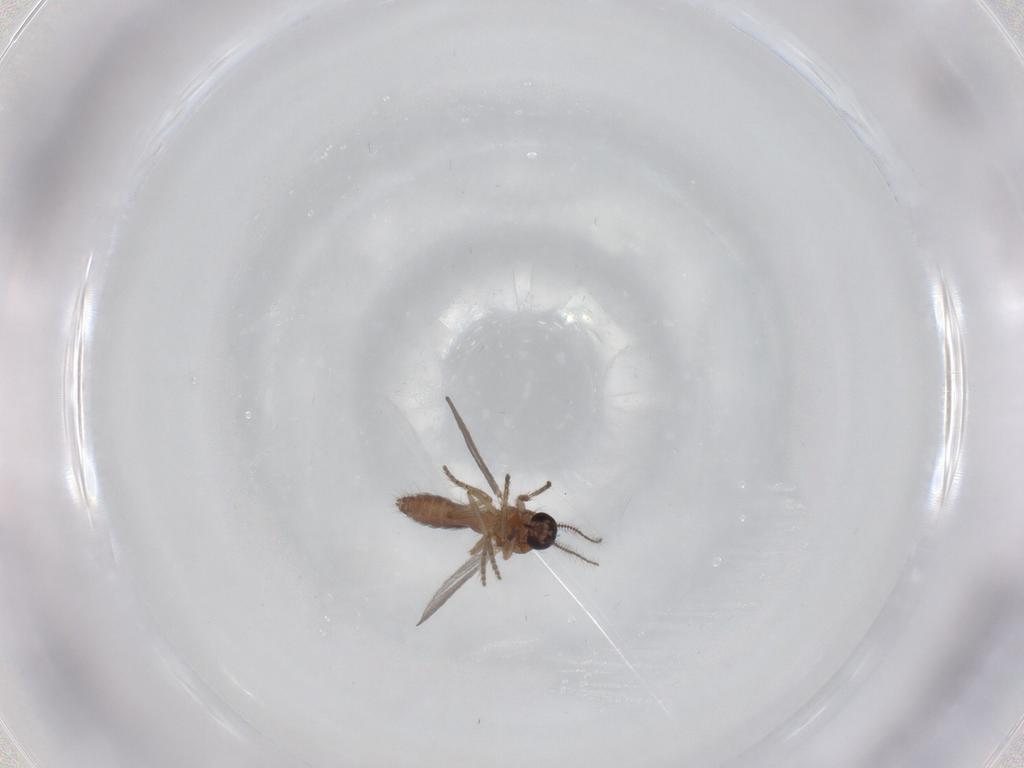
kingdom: Animalia
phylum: Arthropoda
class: Insecta
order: Diptera
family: Ceratopogonidae
